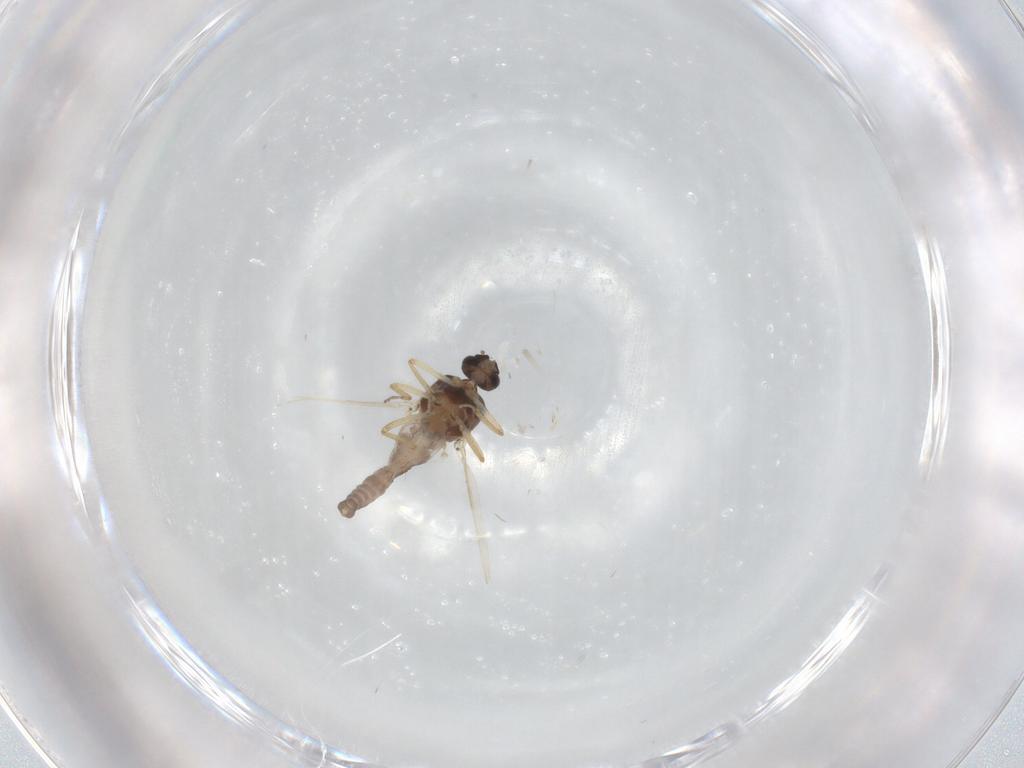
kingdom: Animalia
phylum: Arthropoda
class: Insecta
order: Diptera
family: Ceratopogonidae
